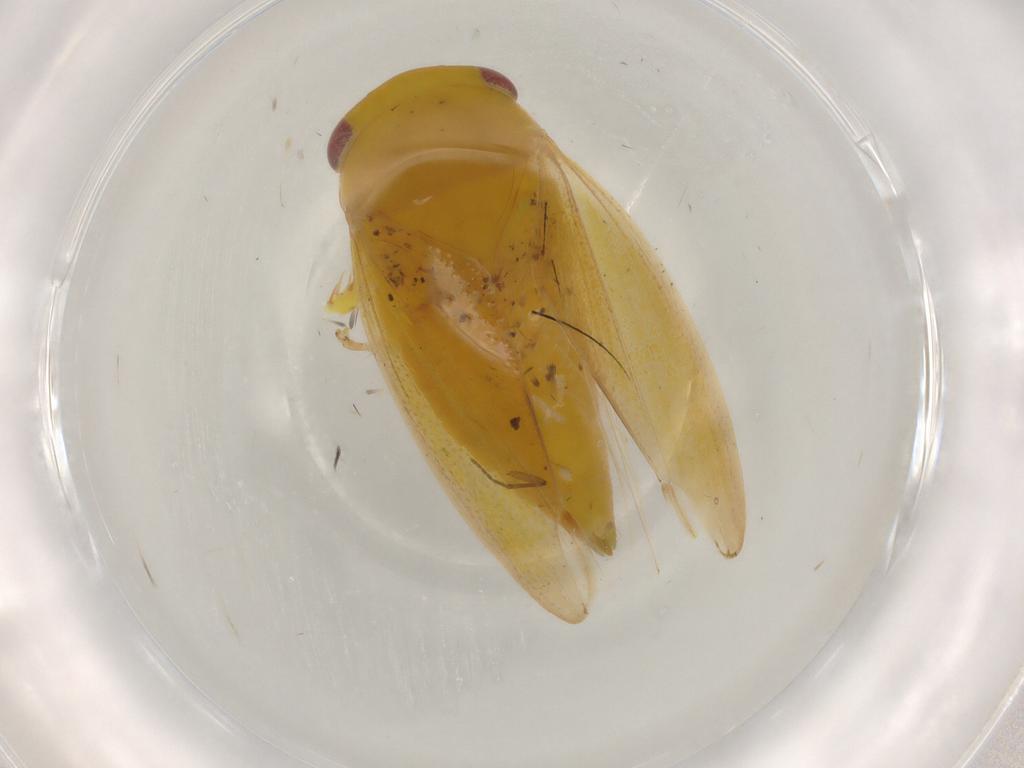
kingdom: Animalia
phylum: Arthropoda
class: Insecta
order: Hemiptera
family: Cicadellidae
